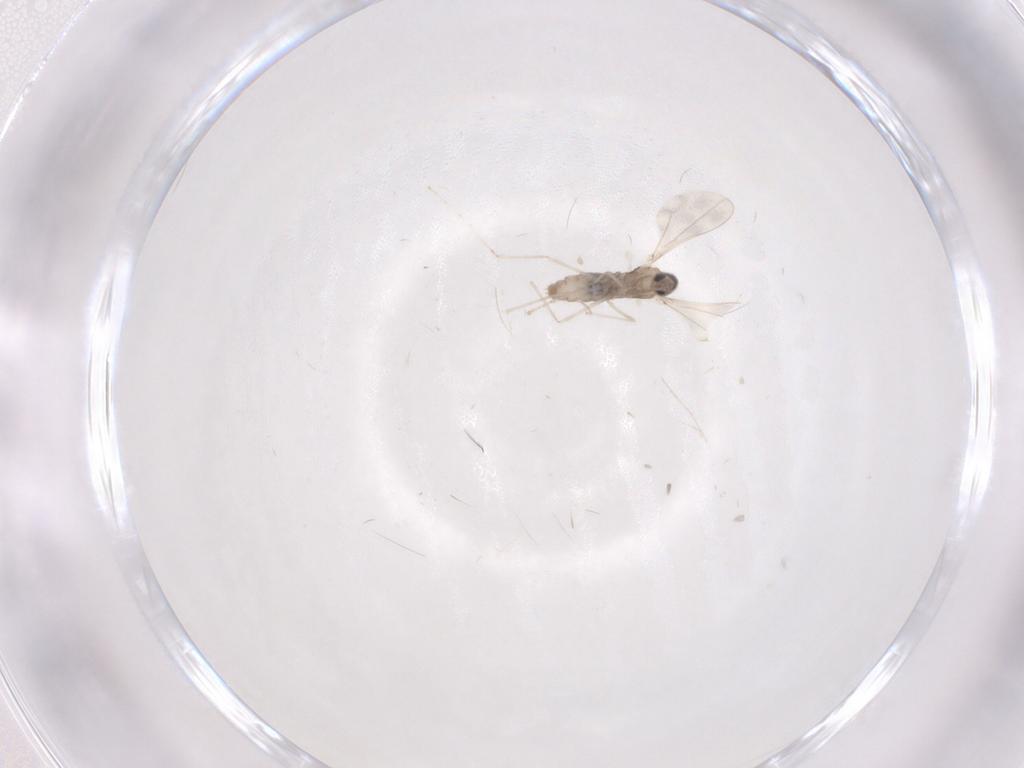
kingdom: Animalia
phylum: Arthropoda
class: Insecta
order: Diptera
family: Phoridae
